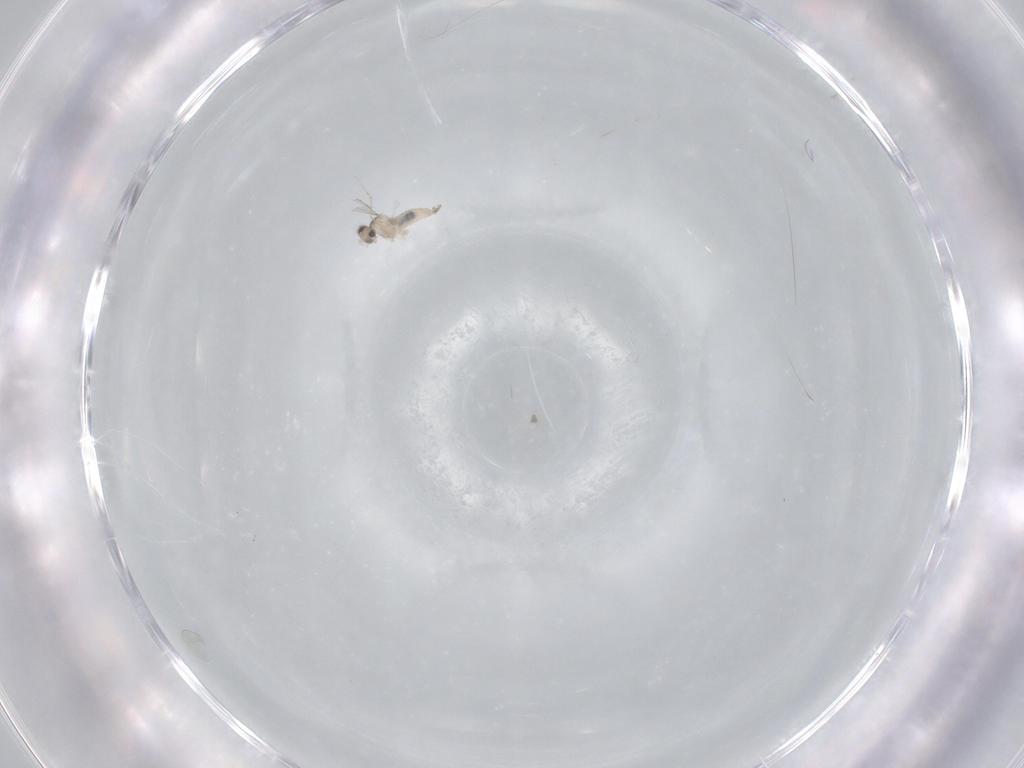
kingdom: Animalia
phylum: Arthropoda
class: Insecta
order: Diptera
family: Cecidomyiidae
